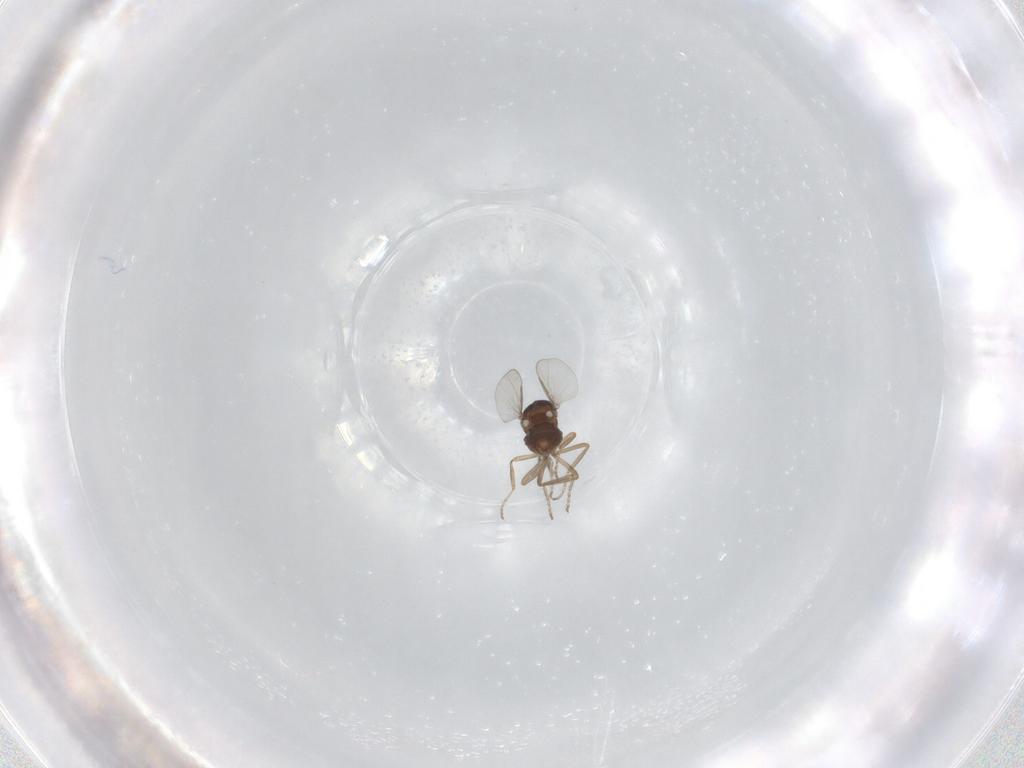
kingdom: Animalia
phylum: Arthropoda
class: Insecta
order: Diptera
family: Ceratopogonidae
